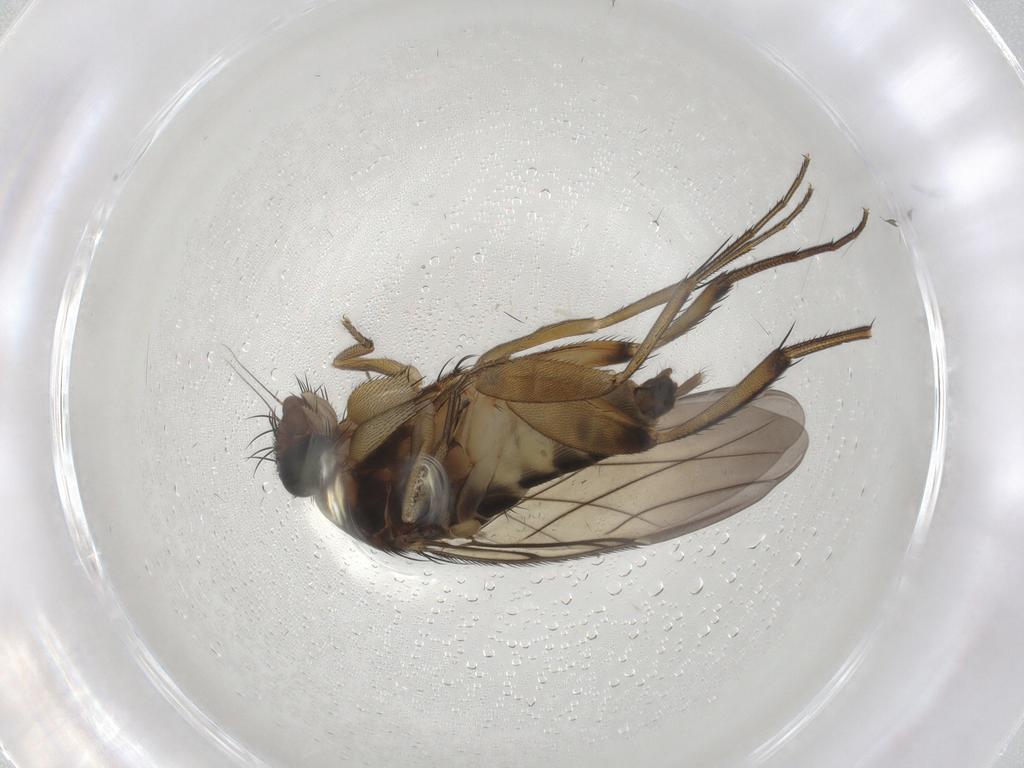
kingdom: Animalia
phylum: Arthropoda
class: Insecta
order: Diptera
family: Phoridae
